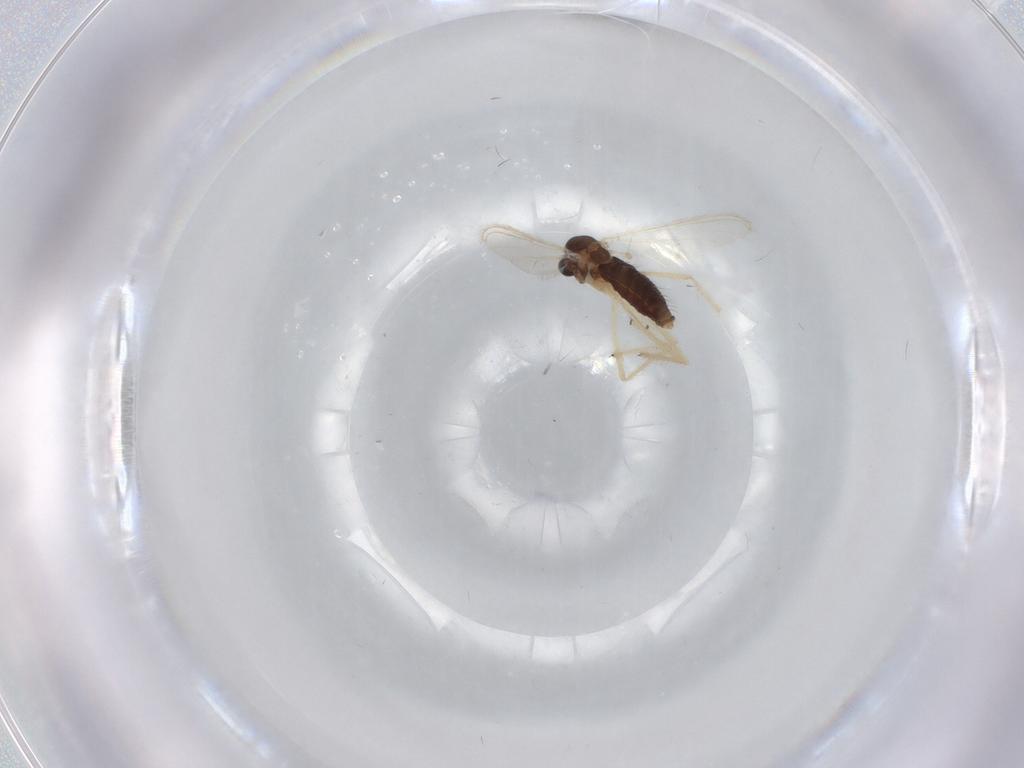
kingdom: Animalia
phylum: Arthropoda
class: Insecta
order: Diptera
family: Chironomidae
